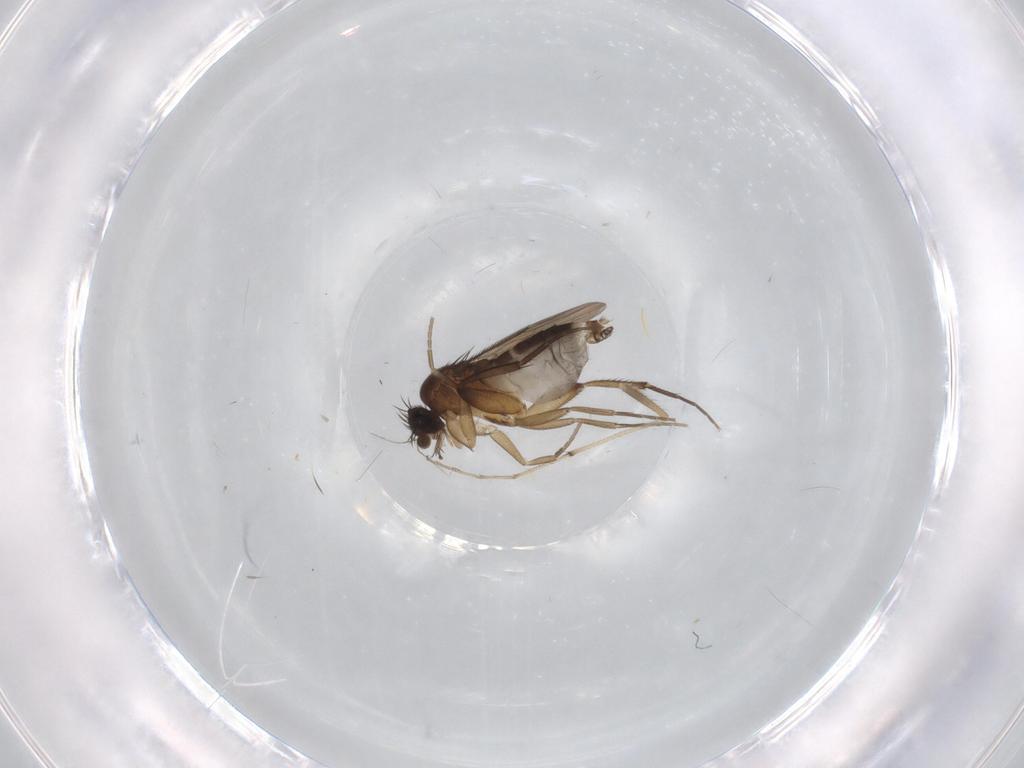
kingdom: Animalia
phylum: Arthropoda
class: Insecta
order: Diptera
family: Phoridae
